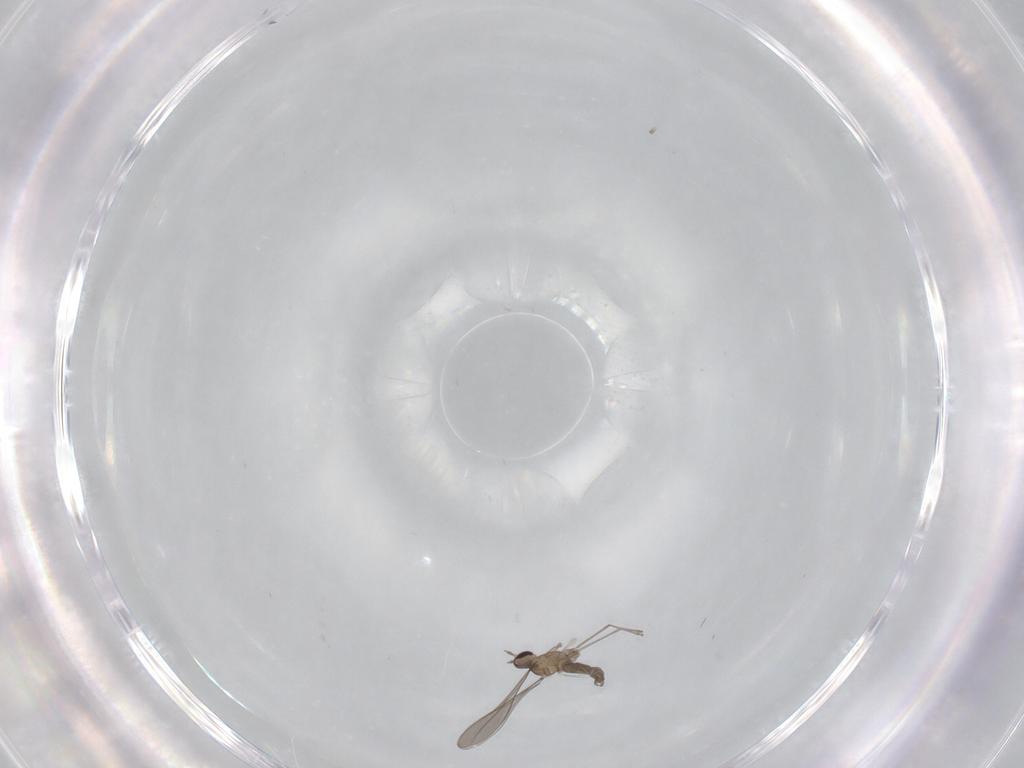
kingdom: Animalia
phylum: Arthropoda
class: Insecta
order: Diptera
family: Cecidomyiidae
